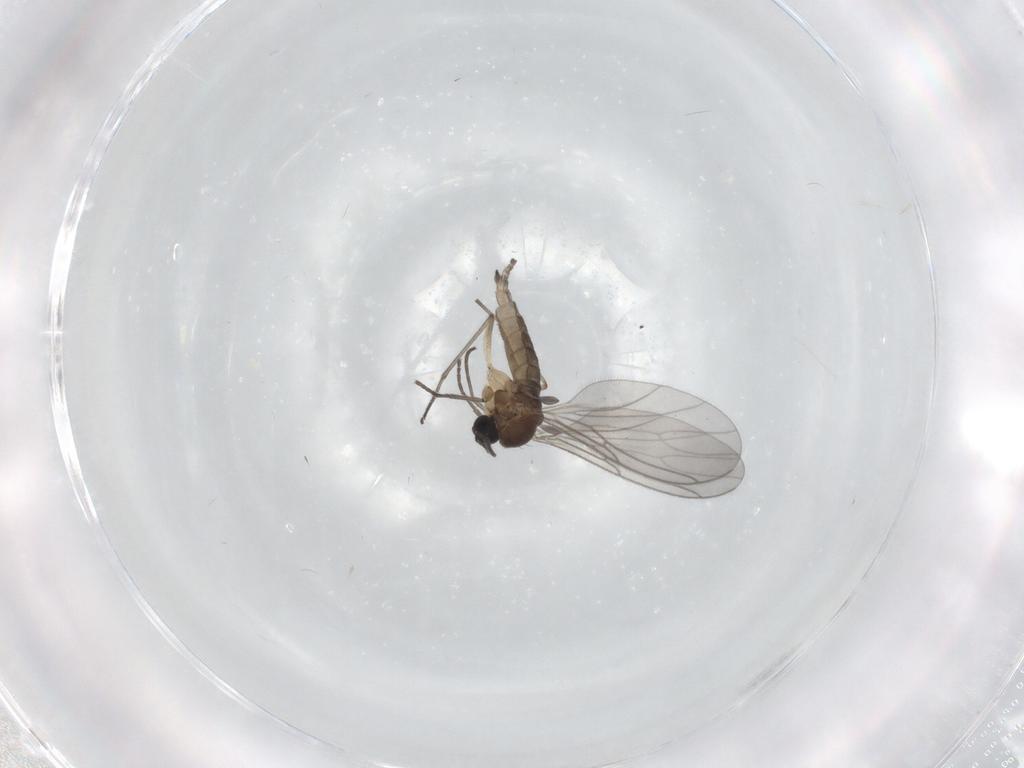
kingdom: Animalia
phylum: Arthropoda
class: Insecta
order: Diptera
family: Sciaridae
